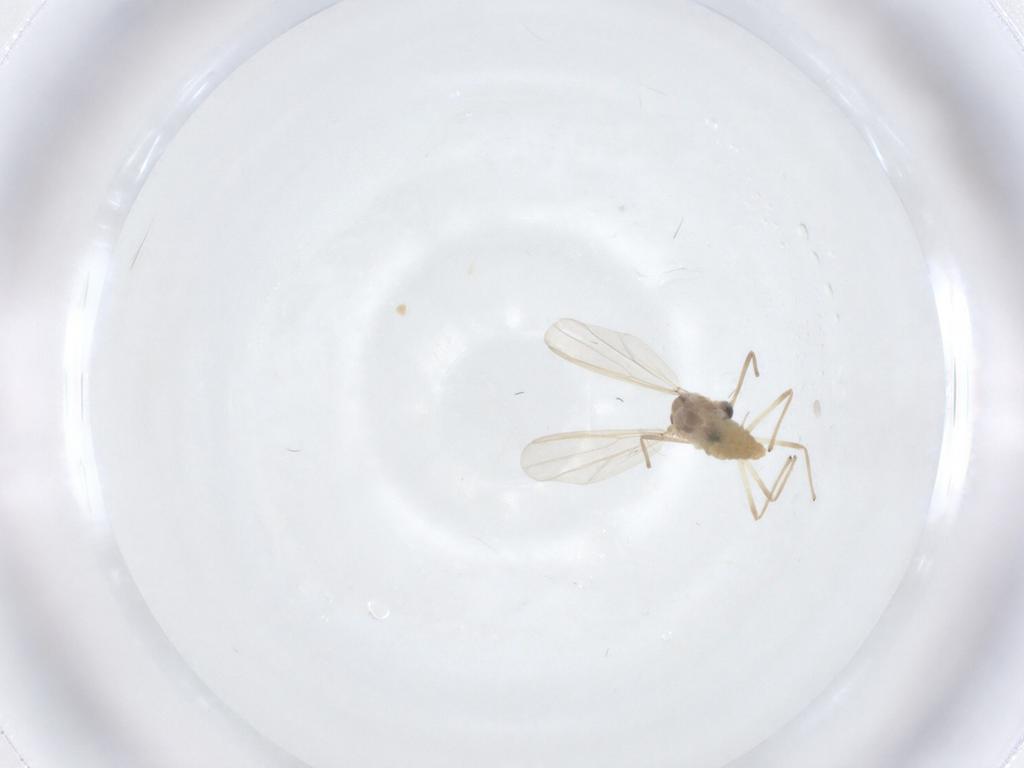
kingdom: Animalia
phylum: Arthropoda
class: Insecta
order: Diptera
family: Chironomidae
